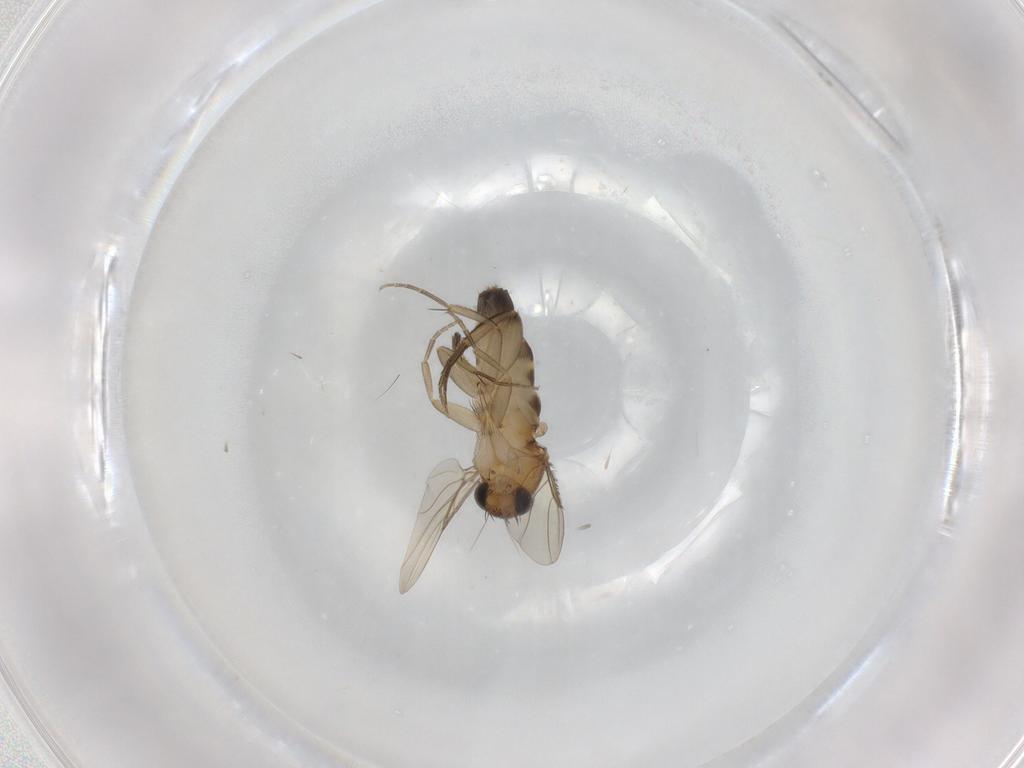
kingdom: Animalia
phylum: Arthropoda
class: Insecta
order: Diptera
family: Phoridae
